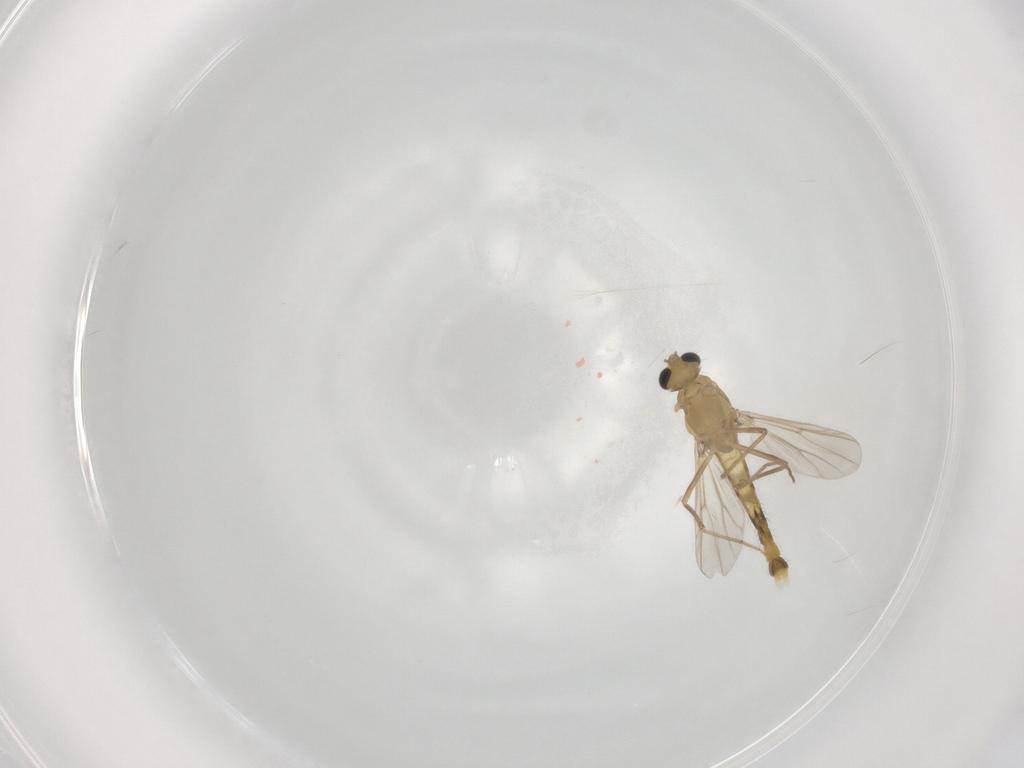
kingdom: Animalia
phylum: Arthropoda
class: Insecta
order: Diptera
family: Chironomidae
